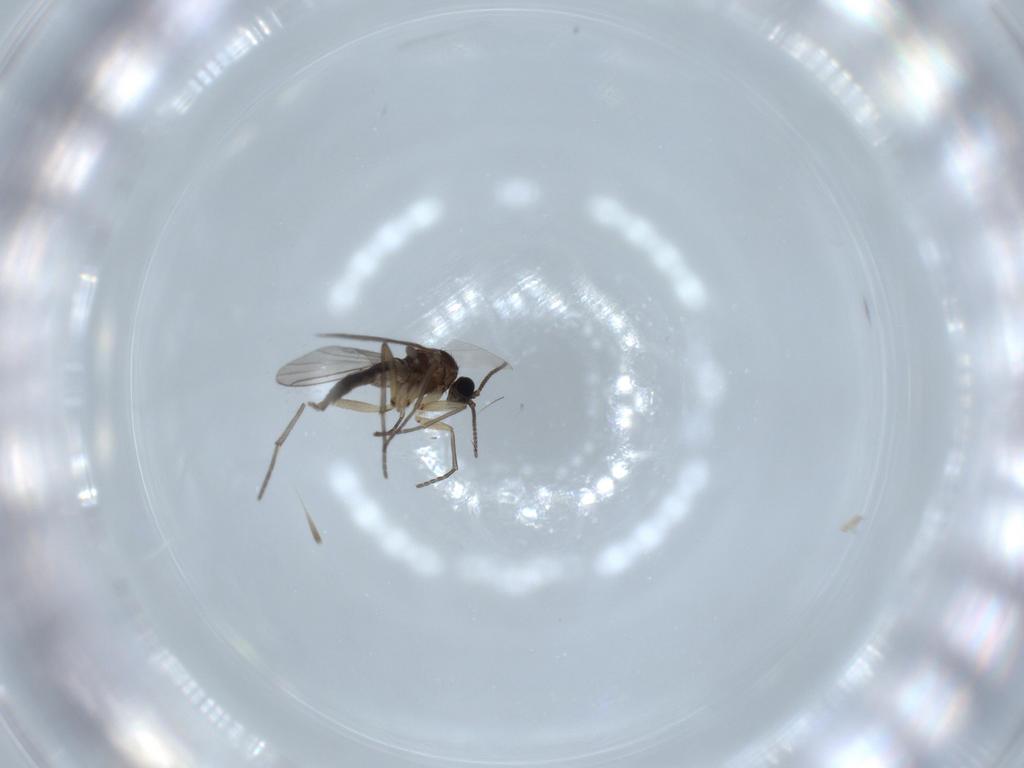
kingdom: Animalia
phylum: Arthropoda
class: Insecta
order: Diptera
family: Sciaridae
